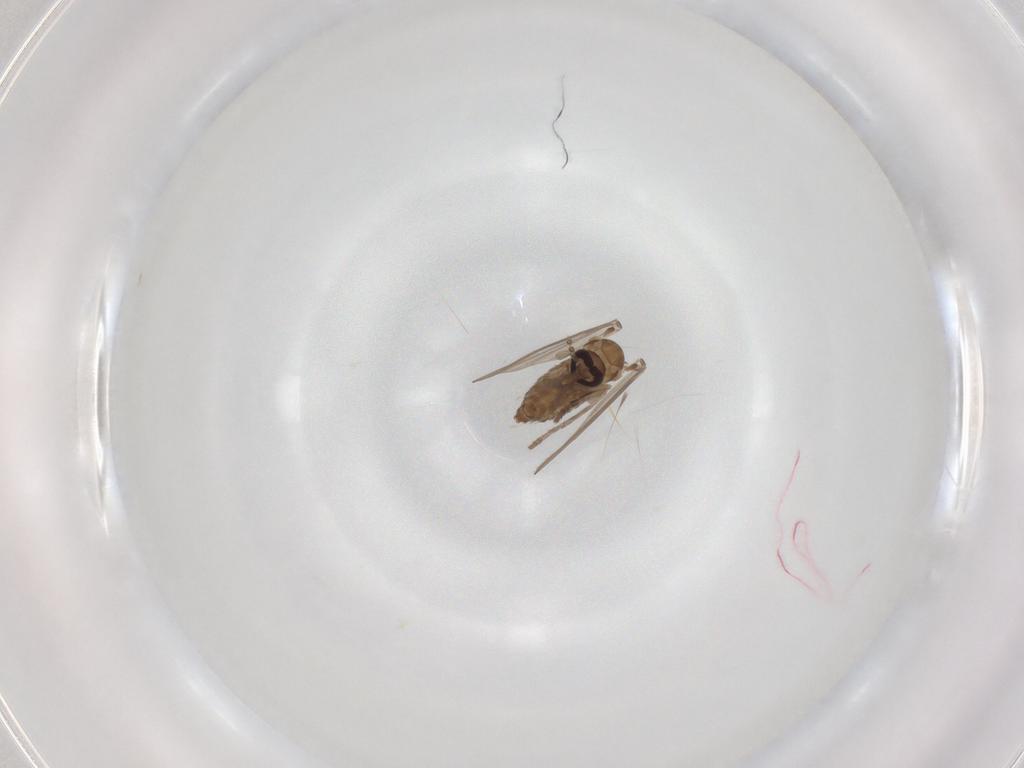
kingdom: Animalia
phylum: Arthropoda
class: Insecta
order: Diptera
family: Psychodidae
